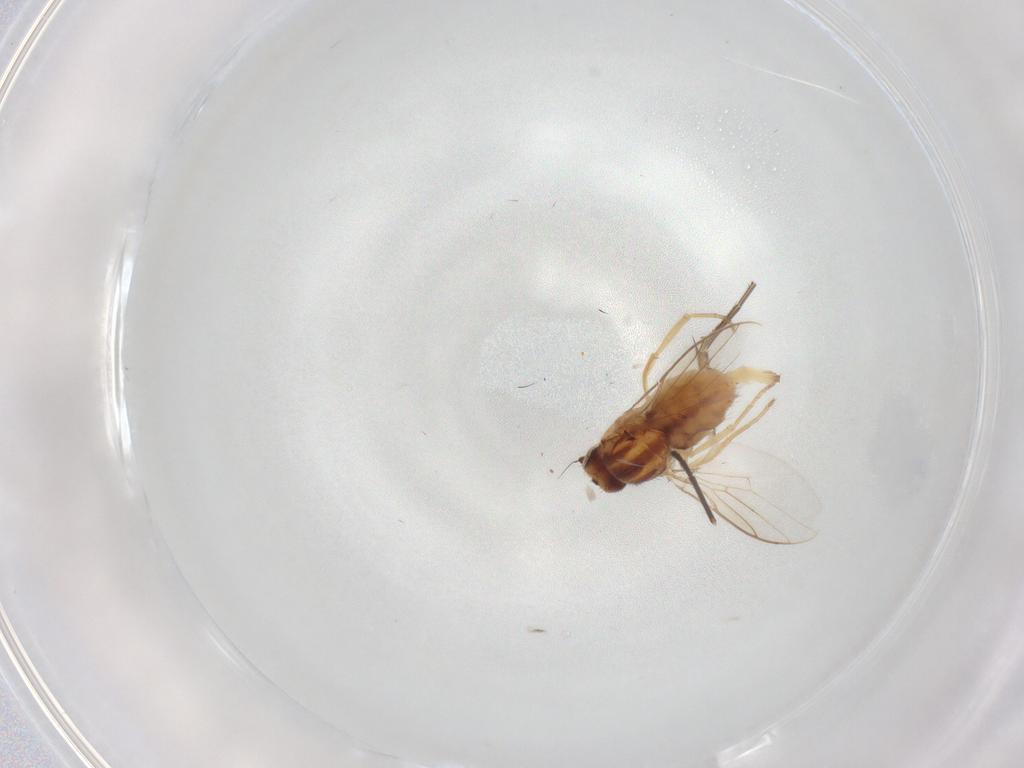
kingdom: Animalia
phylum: Arthropoda
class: Insecta
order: Diptera
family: Chloropidae
